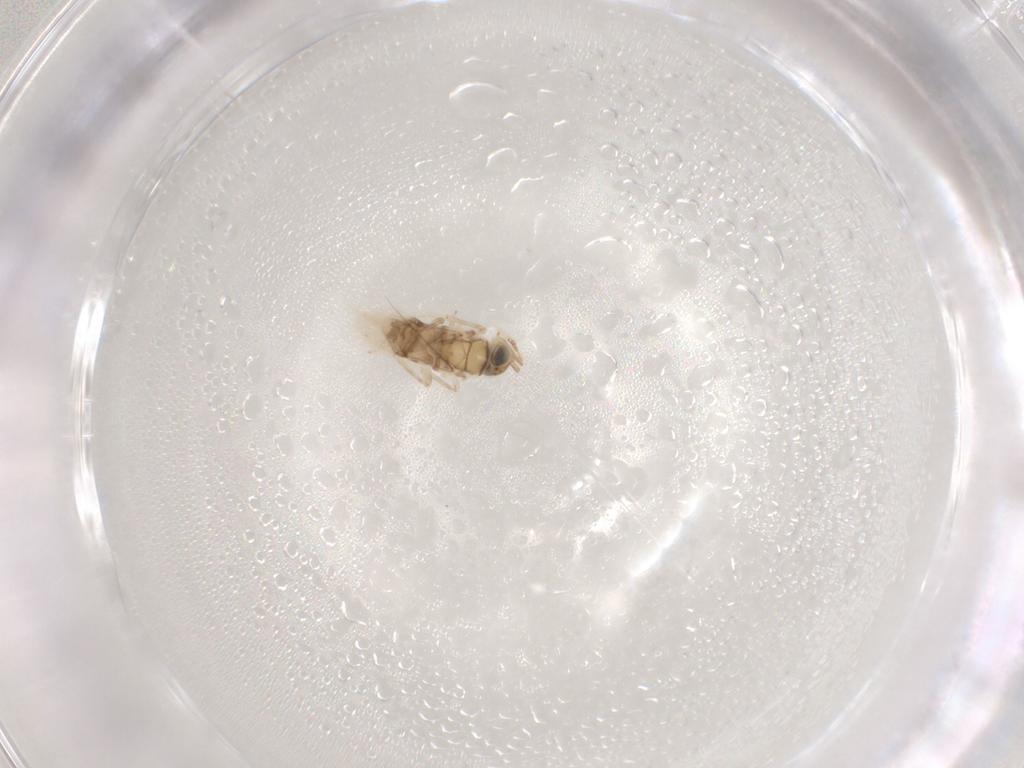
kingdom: Animalia
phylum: Arthropoda
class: Insecta
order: Hymenoptera
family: Encyrtidae
